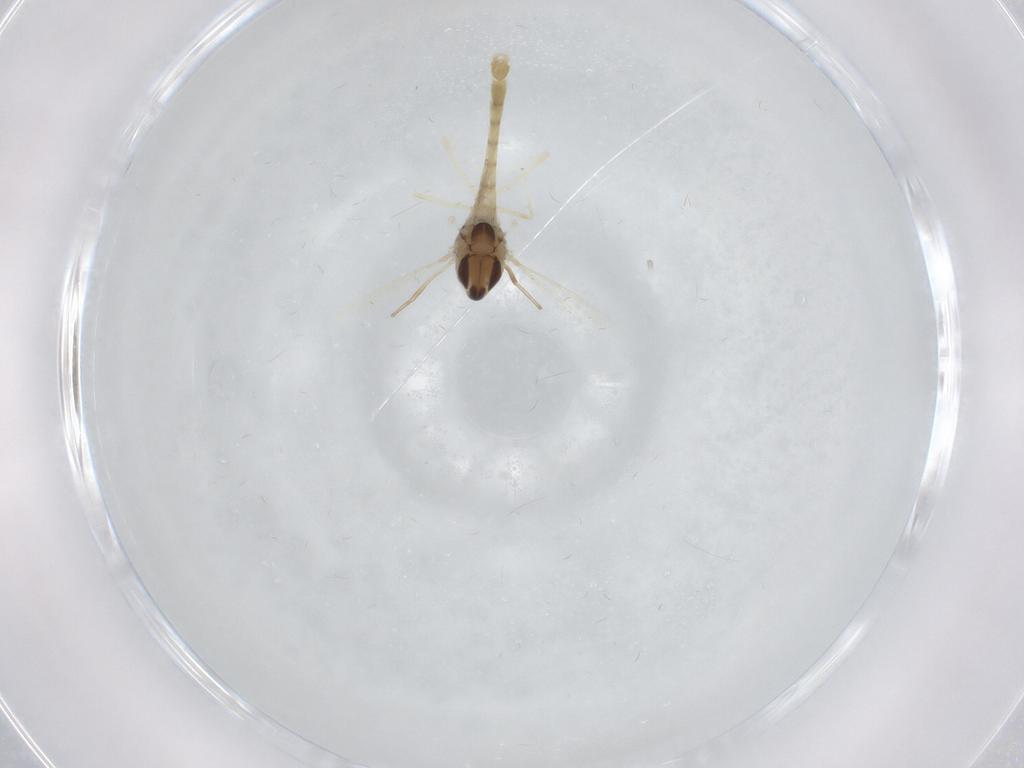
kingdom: Animalia
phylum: Arthropoda
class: Insecta
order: Diptera
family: Chironomidae
